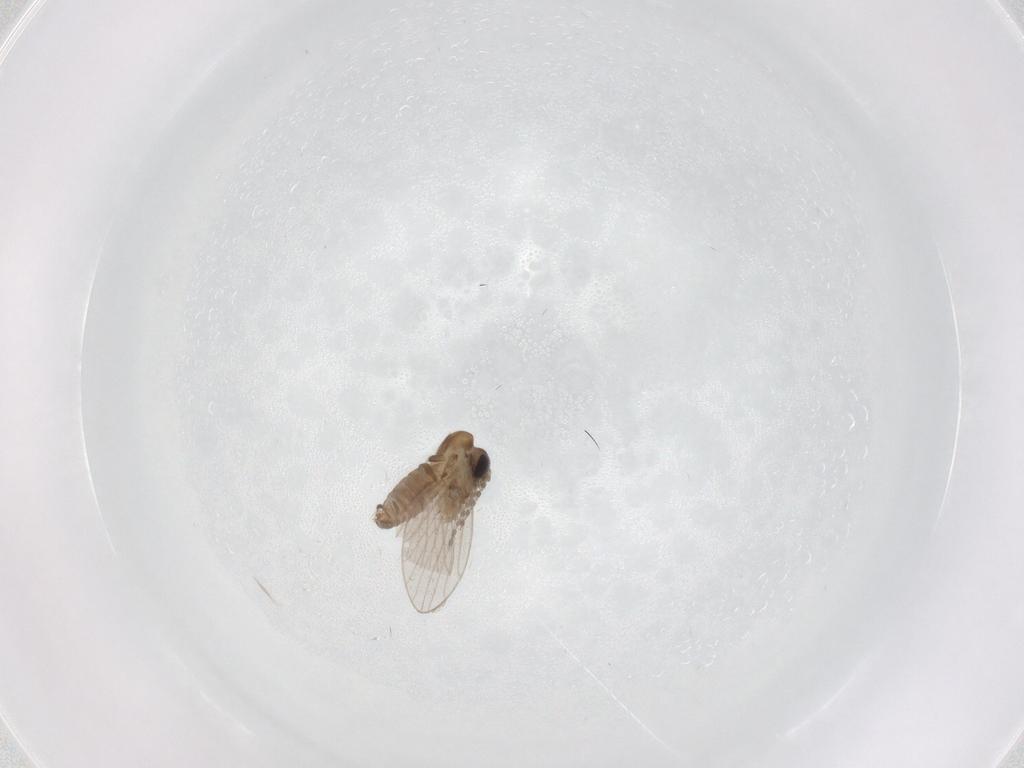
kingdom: Animalia
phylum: Arthropoda
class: Insecta
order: Diptera
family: Psychodidae
